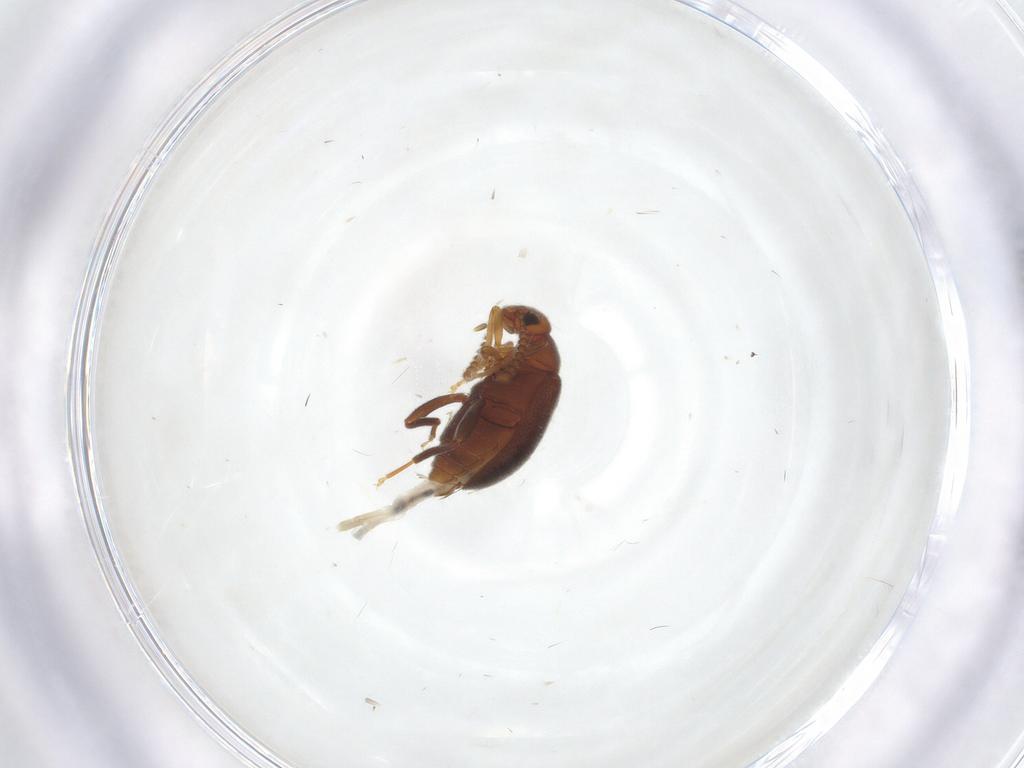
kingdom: Animalia
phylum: Arthropoda
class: Insecta
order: Coleoptera
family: Aderidae
